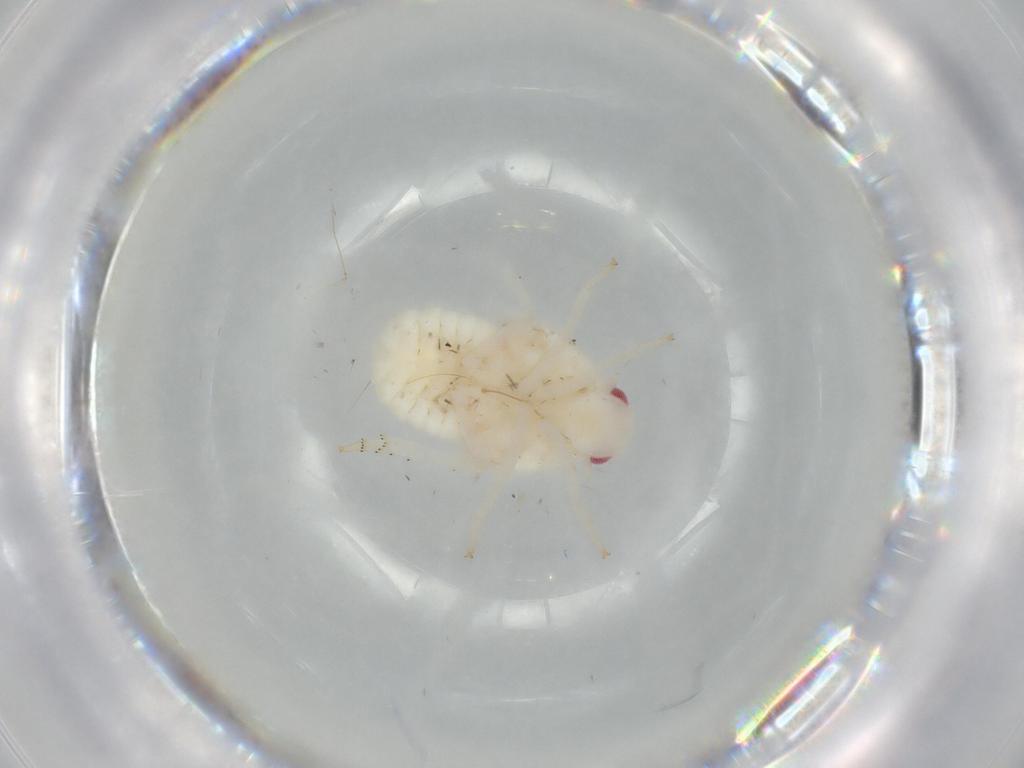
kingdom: Animalia
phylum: Arthropoda
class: Insecta
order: Hemiptera
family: Flatidae
